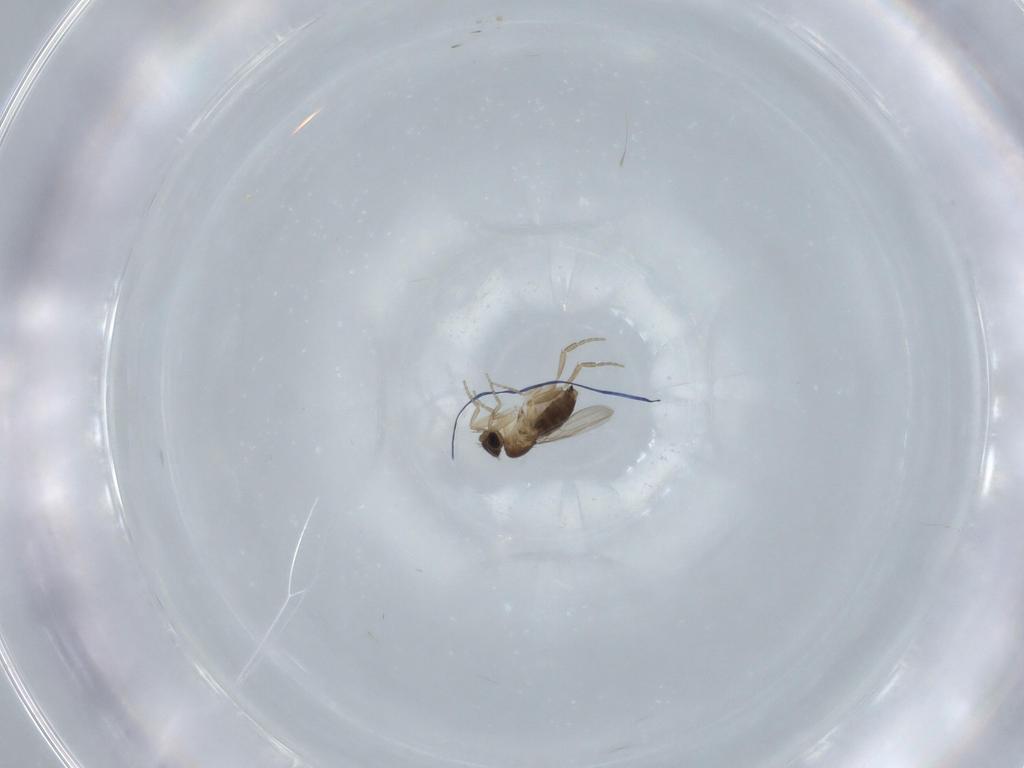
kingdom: Animalia
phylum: Arthropoda
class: Insecta
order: Diptera
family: Phoridae
